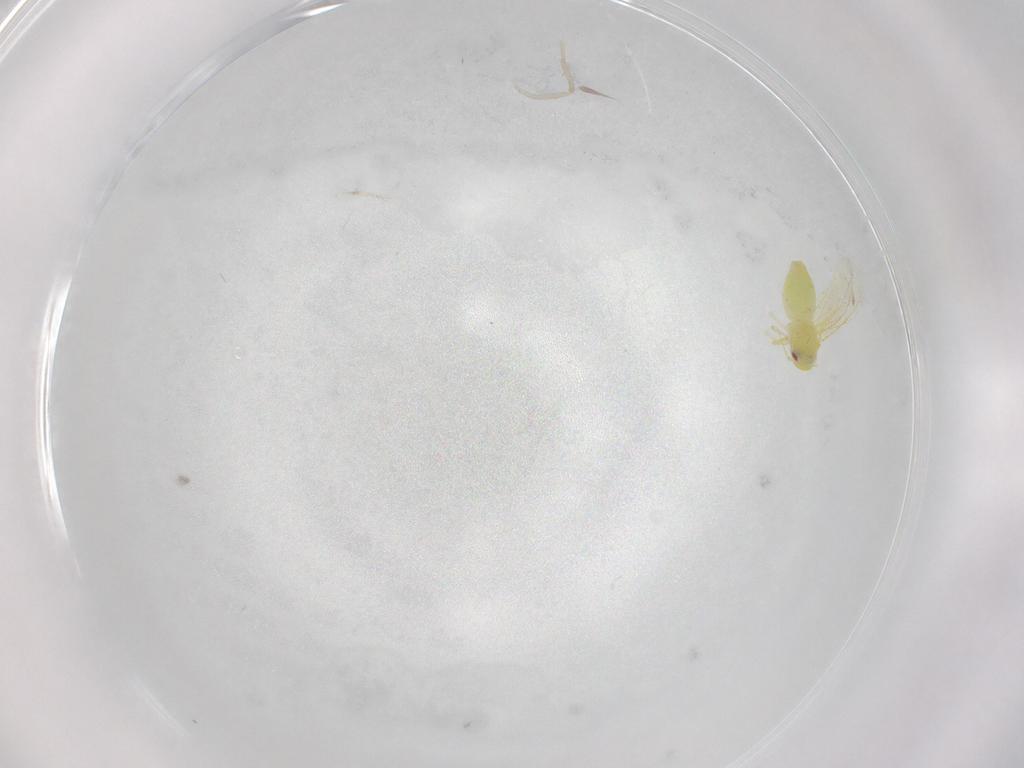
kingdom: Animalia
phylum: Arthropoda
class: Insecta
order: Hemiptera
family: Aleyrodidae
